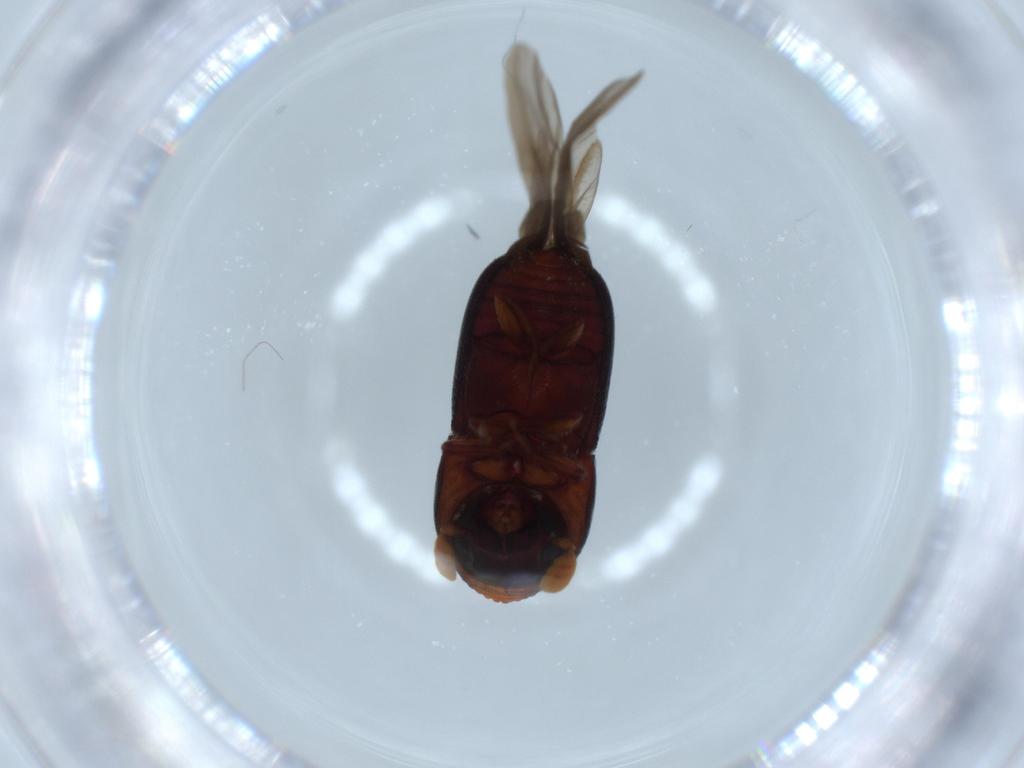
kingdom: Animalia
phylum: Arthropoda
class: Insecta
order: Coleoptera
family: Curculionidae
